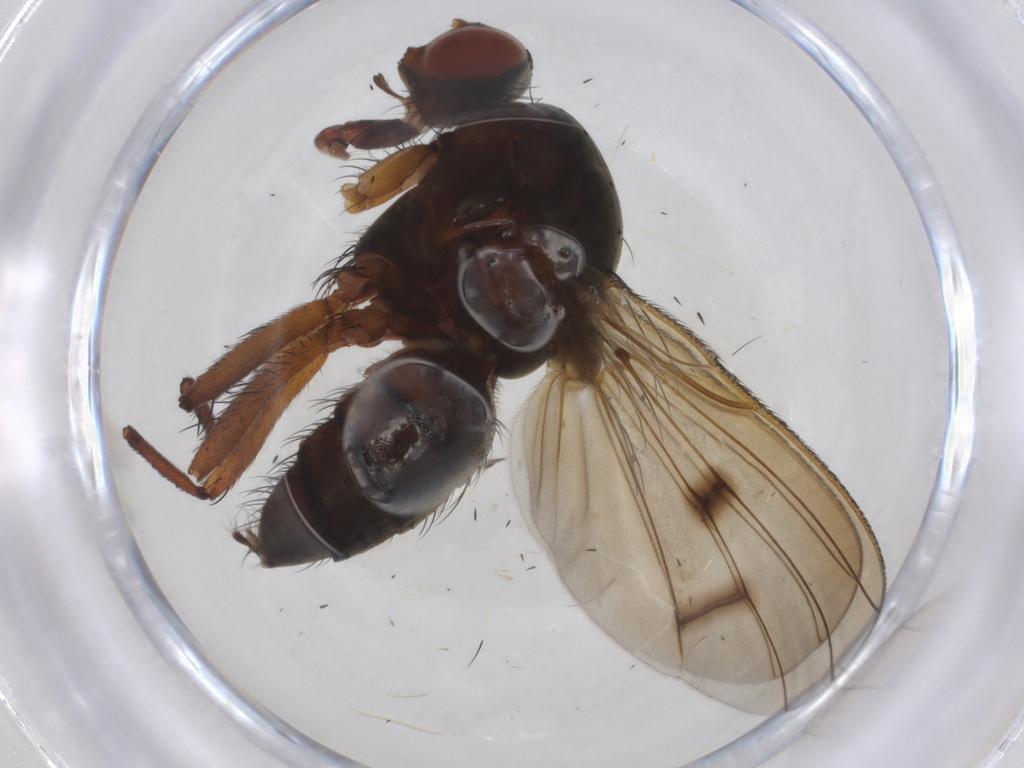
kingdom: Animalia
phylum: Arthropoda
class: Insecta
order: Diptera
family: Anthomyiidae
